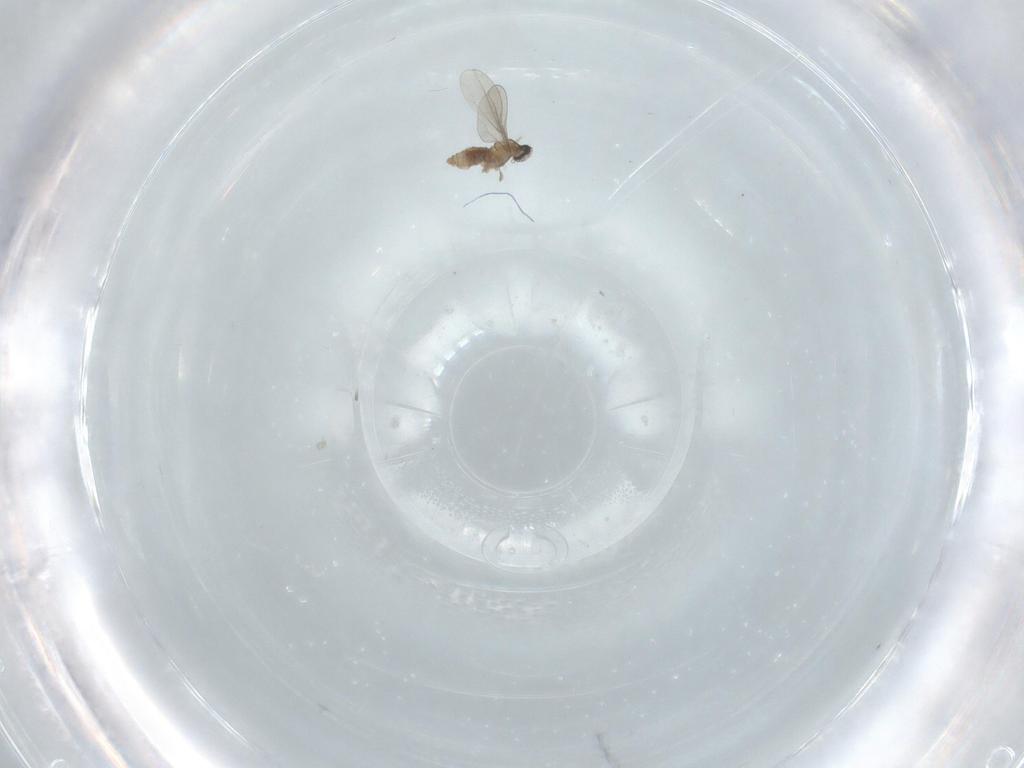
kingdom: Animalia
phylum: Arthropoda
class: Insecta
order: Diptera
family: Cecidomyiidae
